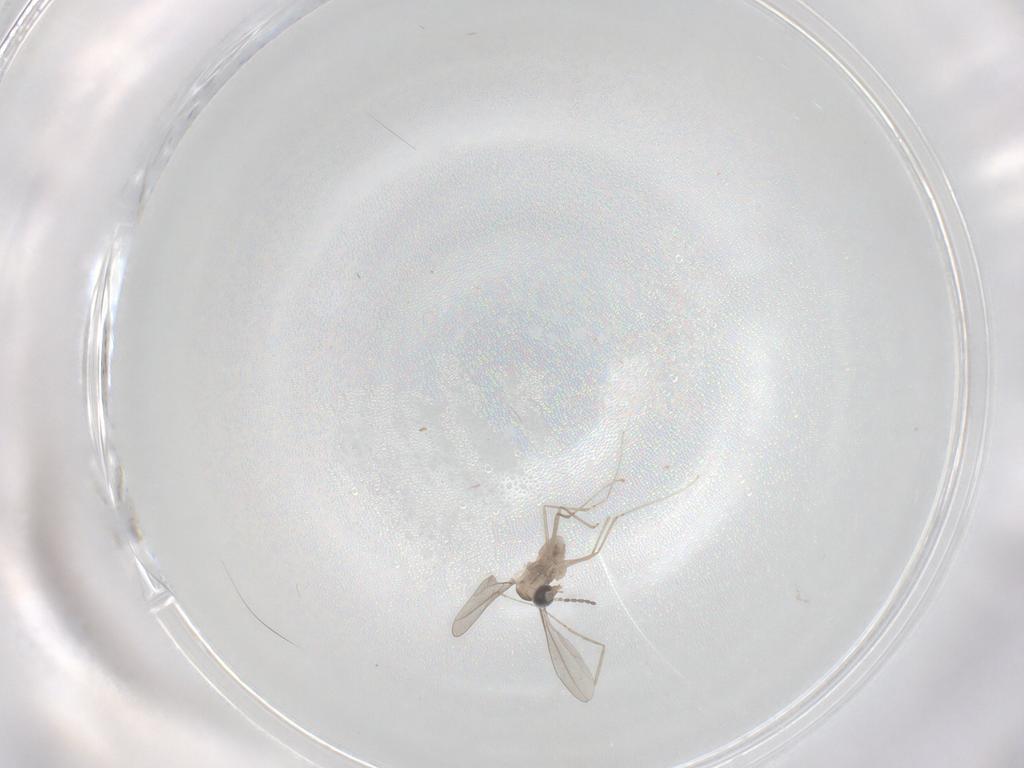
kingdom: Animalia
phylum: Arthropoda
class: Insecta
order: Diptera
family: Cecidomyiidae
